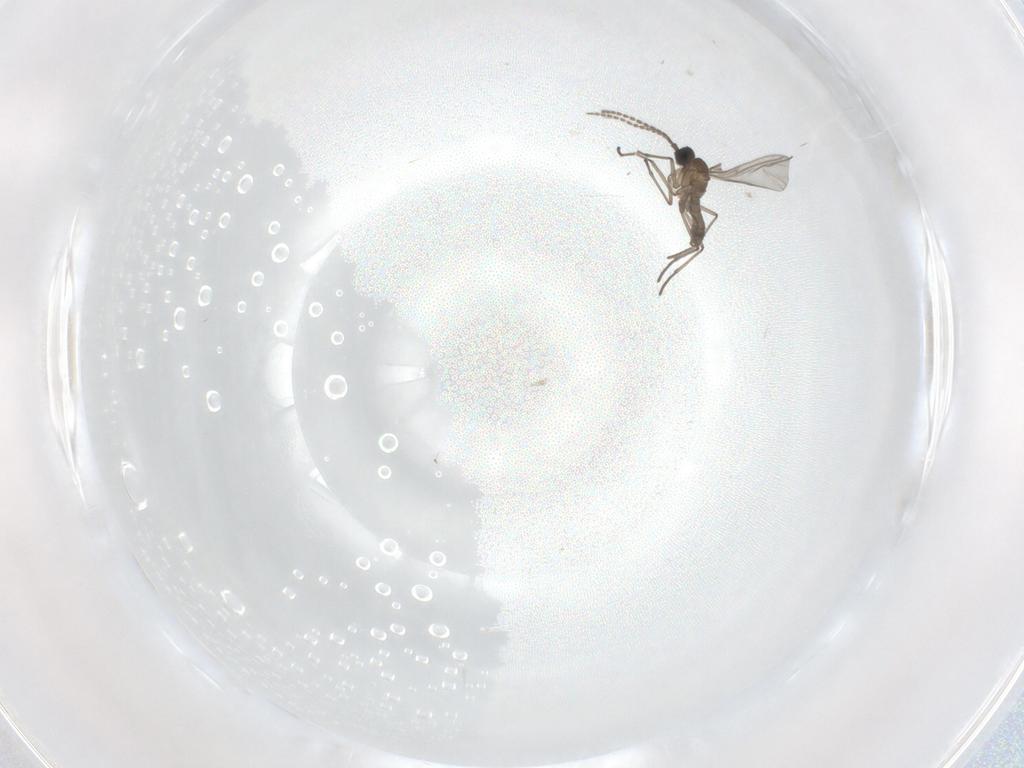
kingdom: Animalia
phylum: Arthropoda
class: Insecta
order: Diptera
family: Sciaridae
